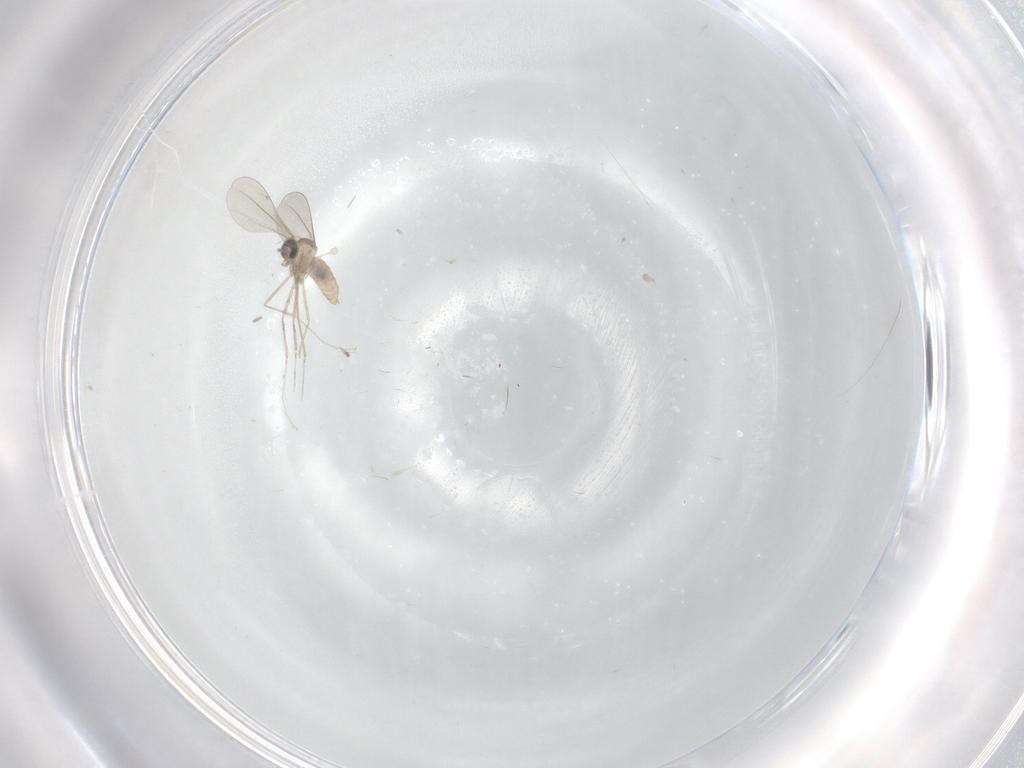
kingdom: Animalia
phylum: Arthropoda
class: Insecta
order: Diptera
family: Cecidomyiidae
